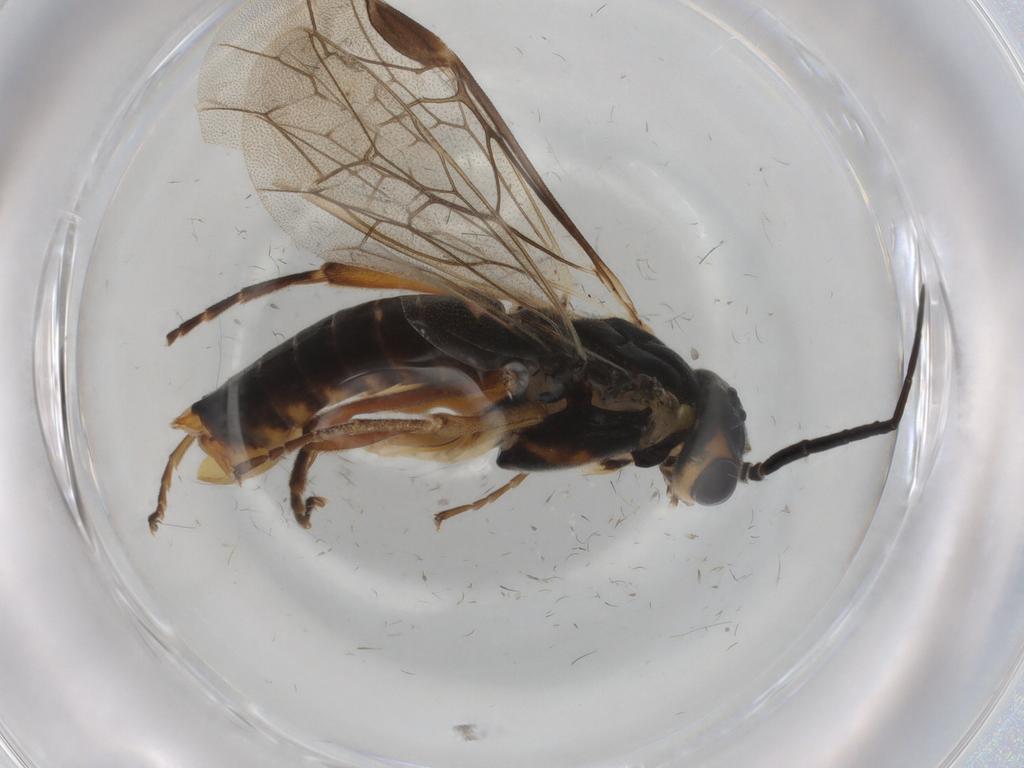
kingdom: Animalia
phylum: Arthropoda
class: Insecta
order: Hymenoptera
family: Tenthredinidae
